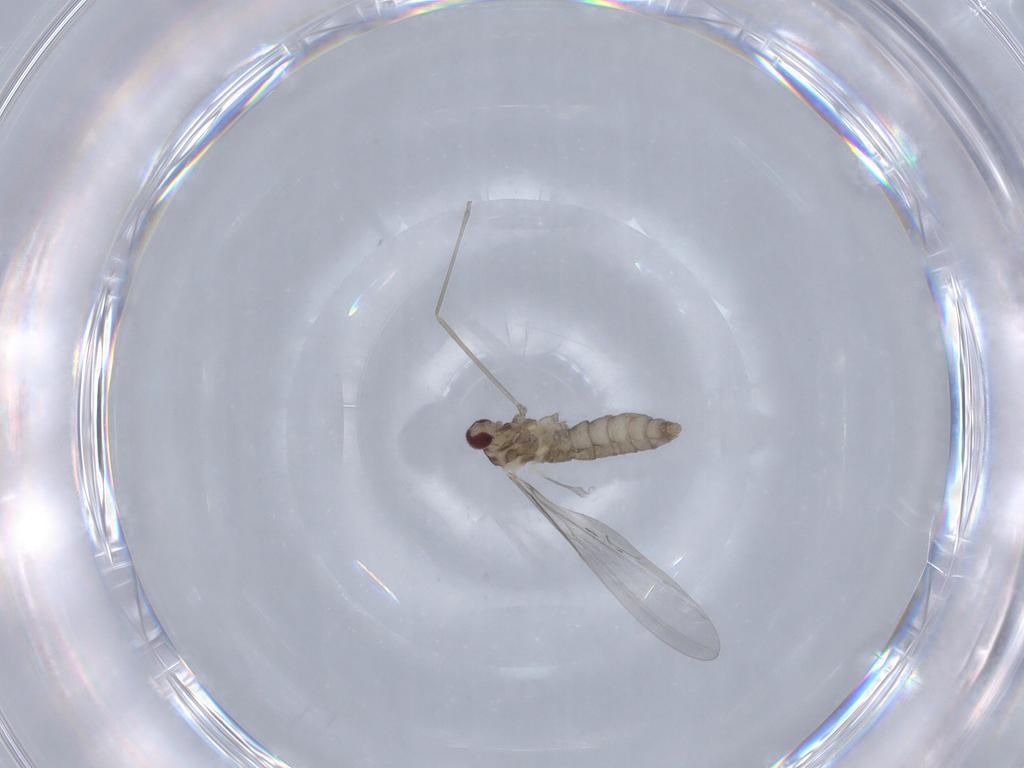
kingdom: Animalia
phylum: Arthropoda
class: Insecta
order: Diptera
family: Cecidomyiidae
